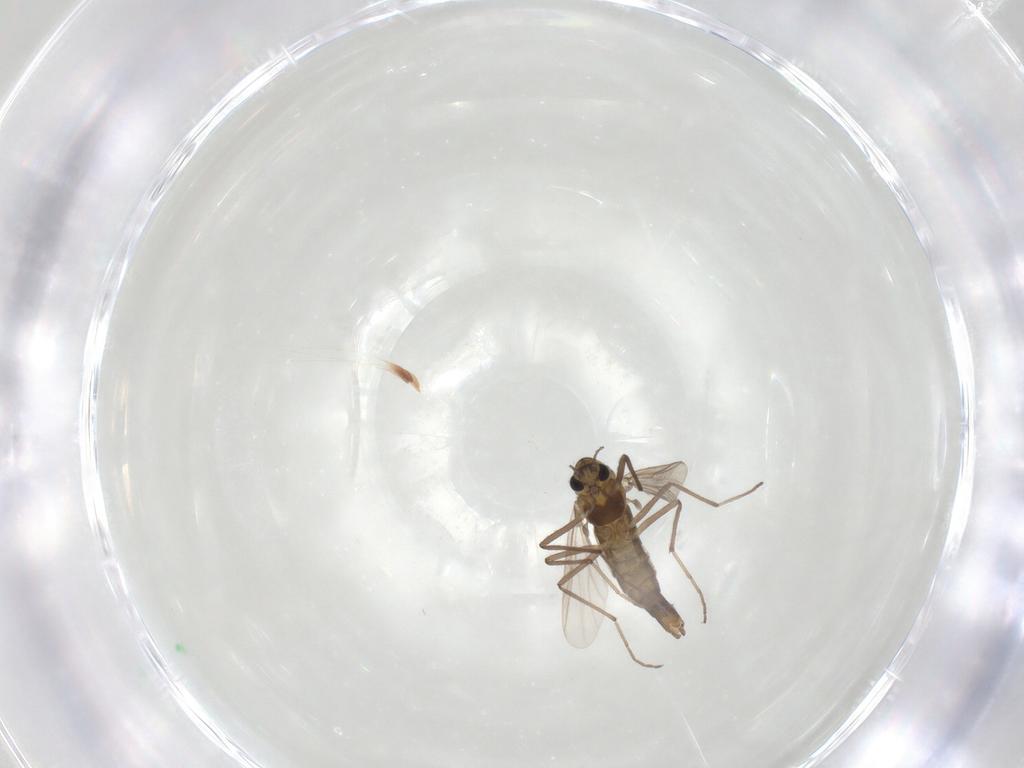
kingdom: Animalia
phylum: Arthropoda
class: Insecta
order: Diptera
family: Chironomidae
